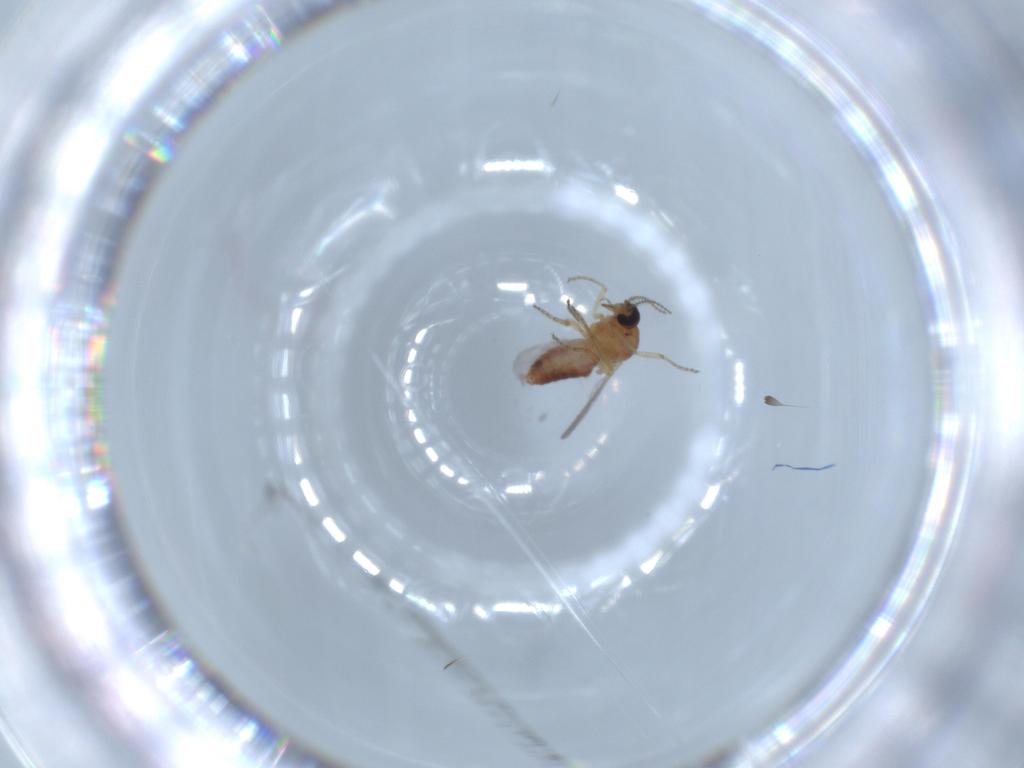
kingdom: Animalia
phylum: Arthropoda
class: Insecta
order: Diptera
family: Ceratopogonidae
